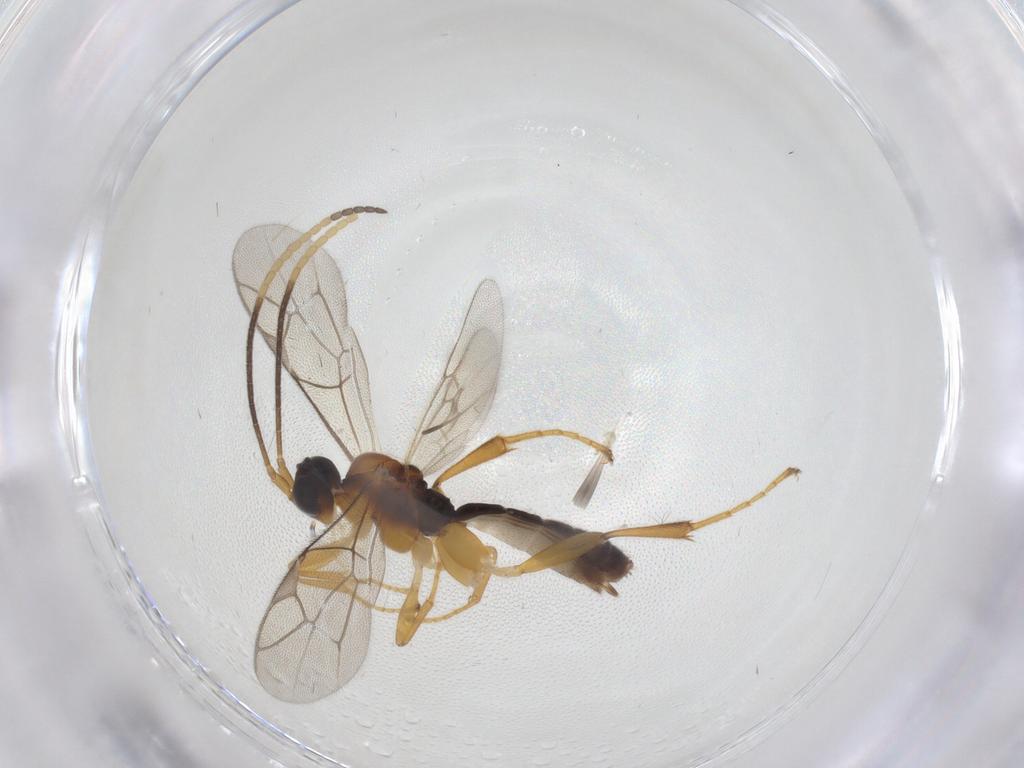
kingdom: Animalia
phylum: Arthropoda
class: Insecta
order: Hymenoptera
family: Ichneumonidae
